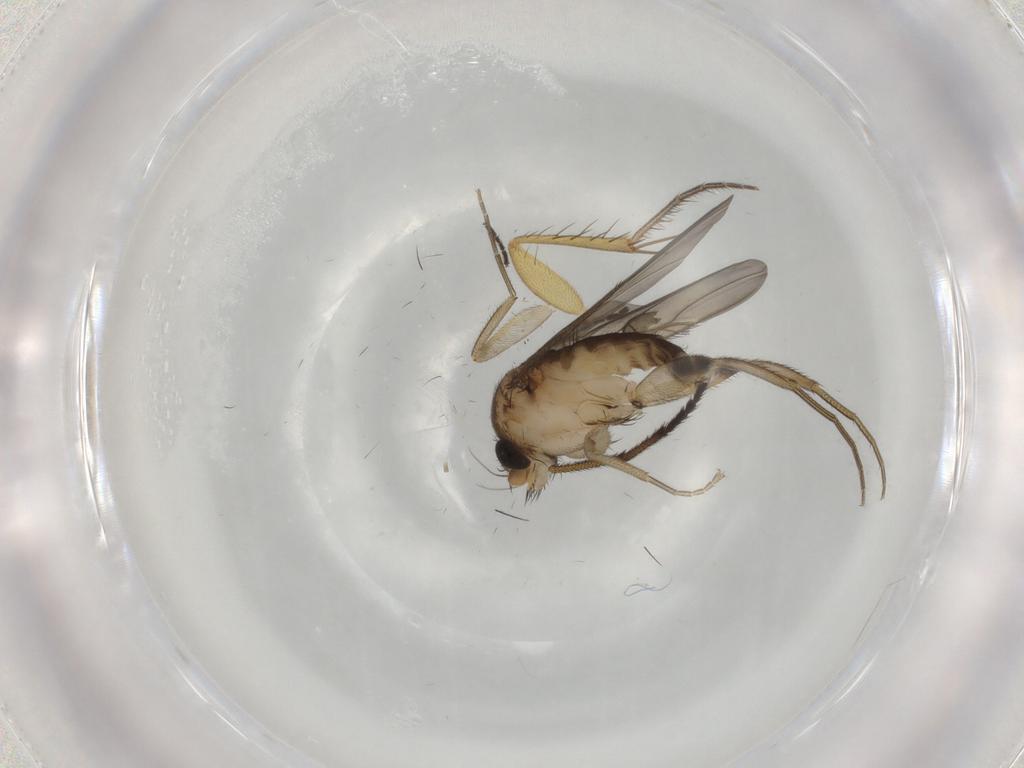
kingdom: Animalia
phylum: Arthropoda
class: Insecta
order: Diptera
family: Phoridae
